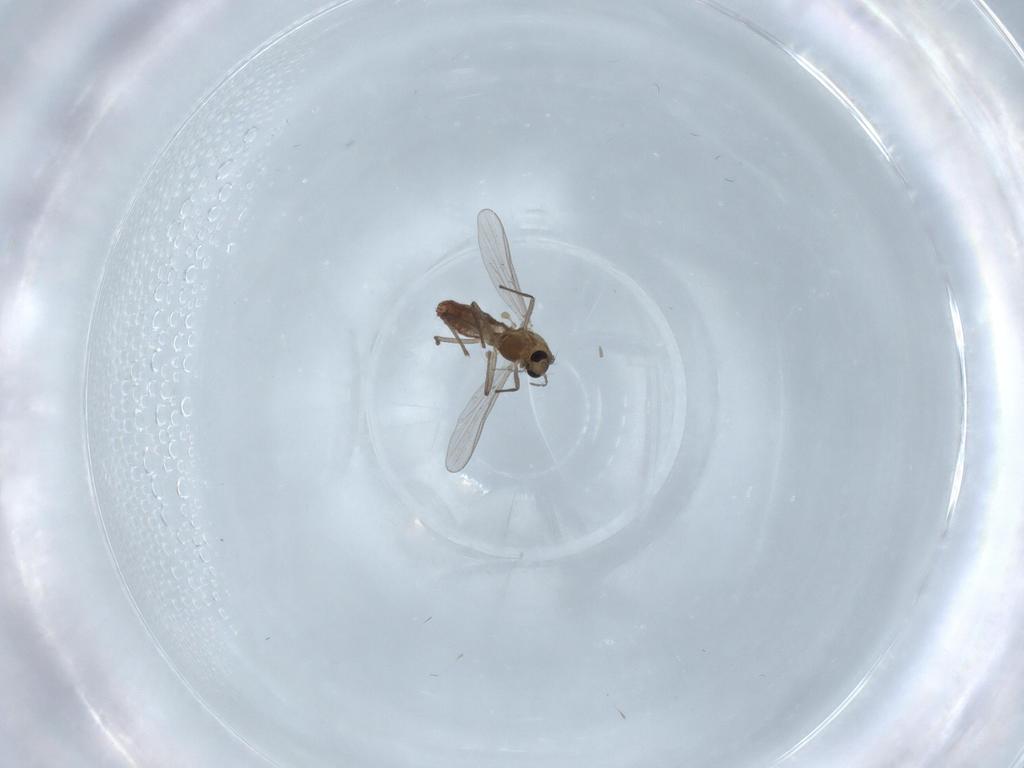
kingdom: Animalia
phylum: Arthropoda
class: Insecta
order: Diptera
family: Chironomidae
